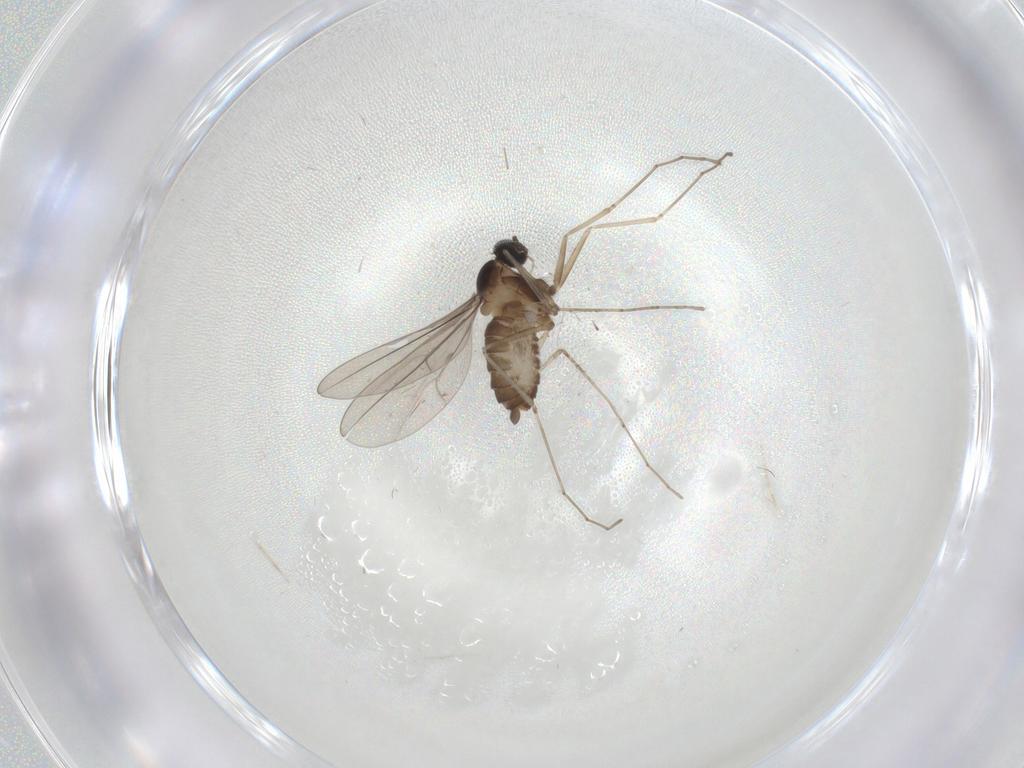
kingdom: Animalia
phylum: Arthropoda
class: Insecta
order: Diptera
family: Cecidomyiidae
